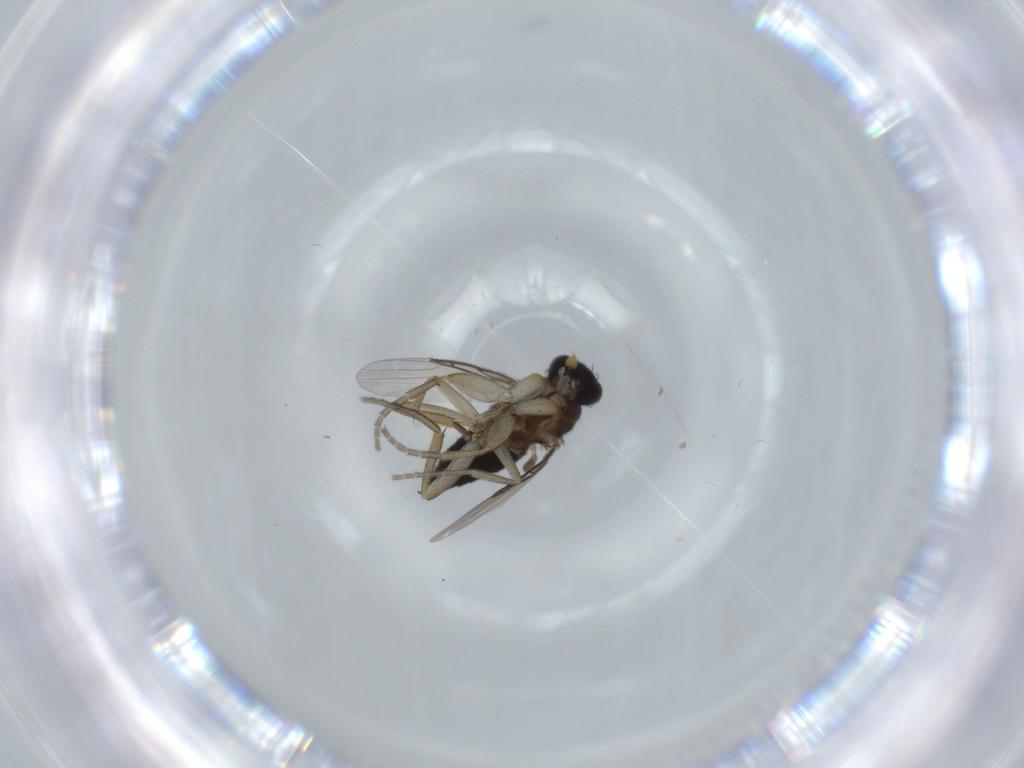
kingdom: Animalia
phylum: Arthropoda
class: Insecta
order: Diptera
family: Phoridae
